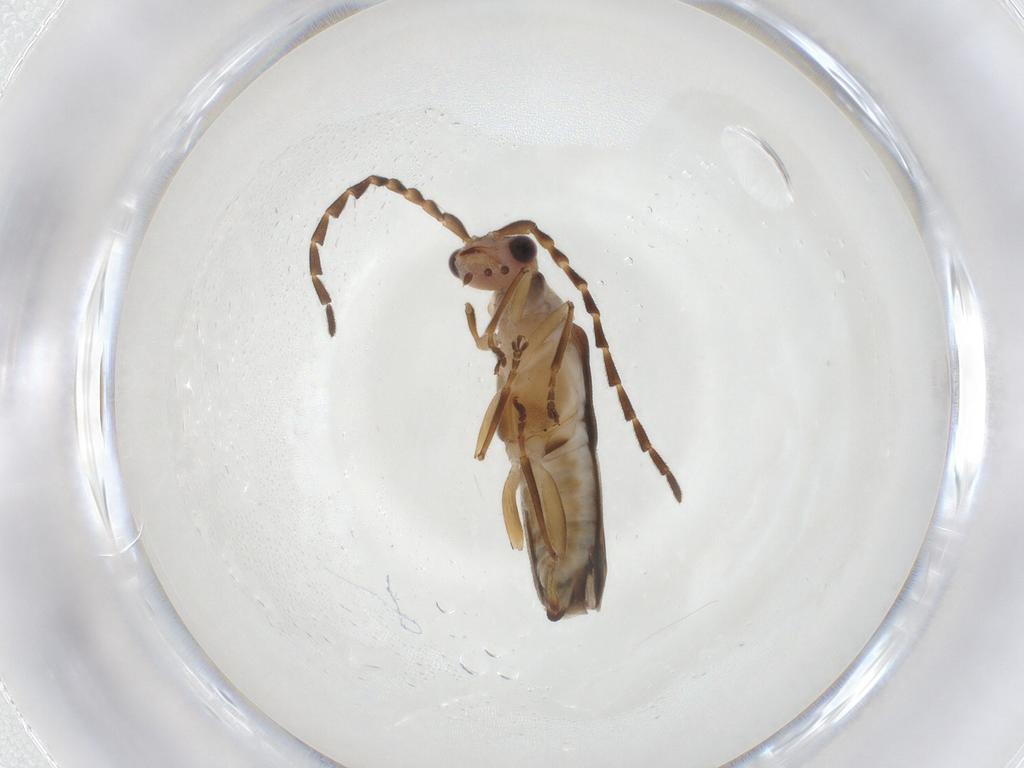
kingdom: Animalia
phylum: Arthropoda
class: Insecta
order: Coleoptera
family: Cantharidae
